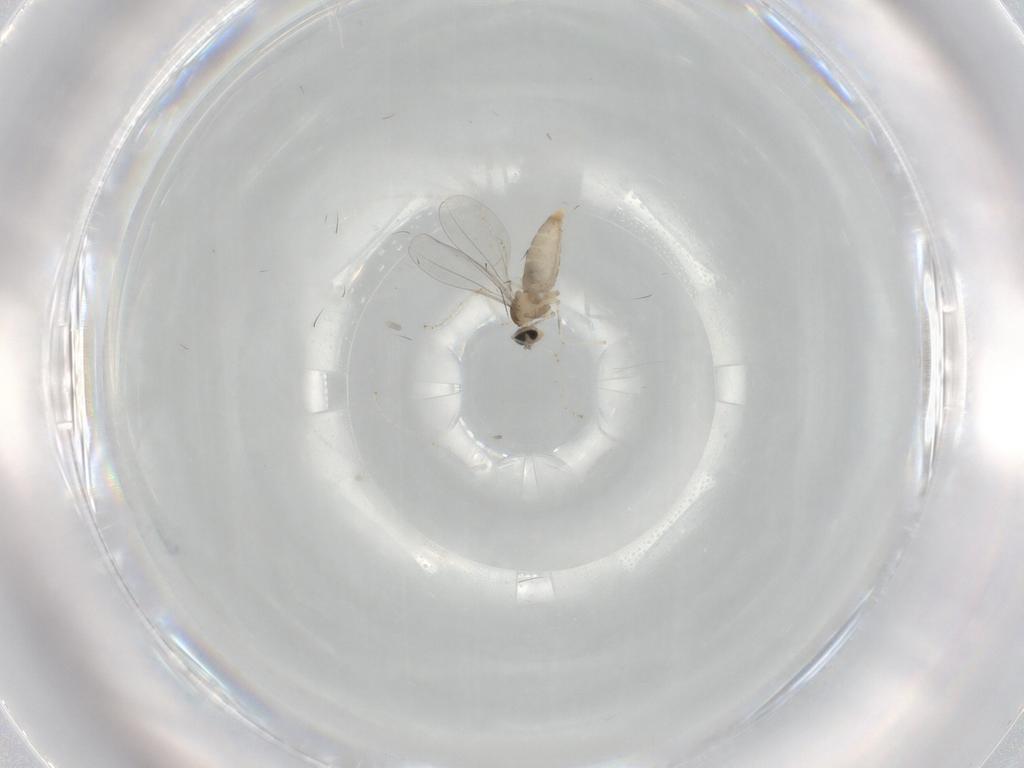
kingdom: Animalia
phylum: Arthropoda
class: Insecta
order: Diptera
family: Cecidomyiidae
